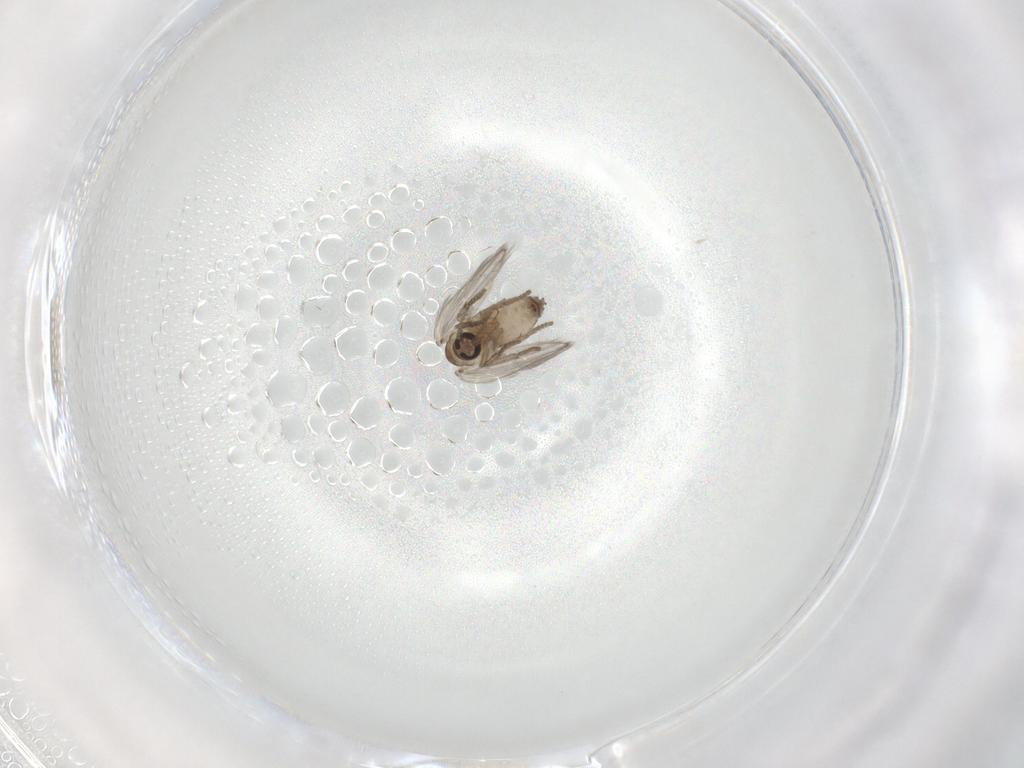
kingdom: Animalia
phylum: Arthropoda
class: Insecta
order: Diptera
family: Psychodidae
